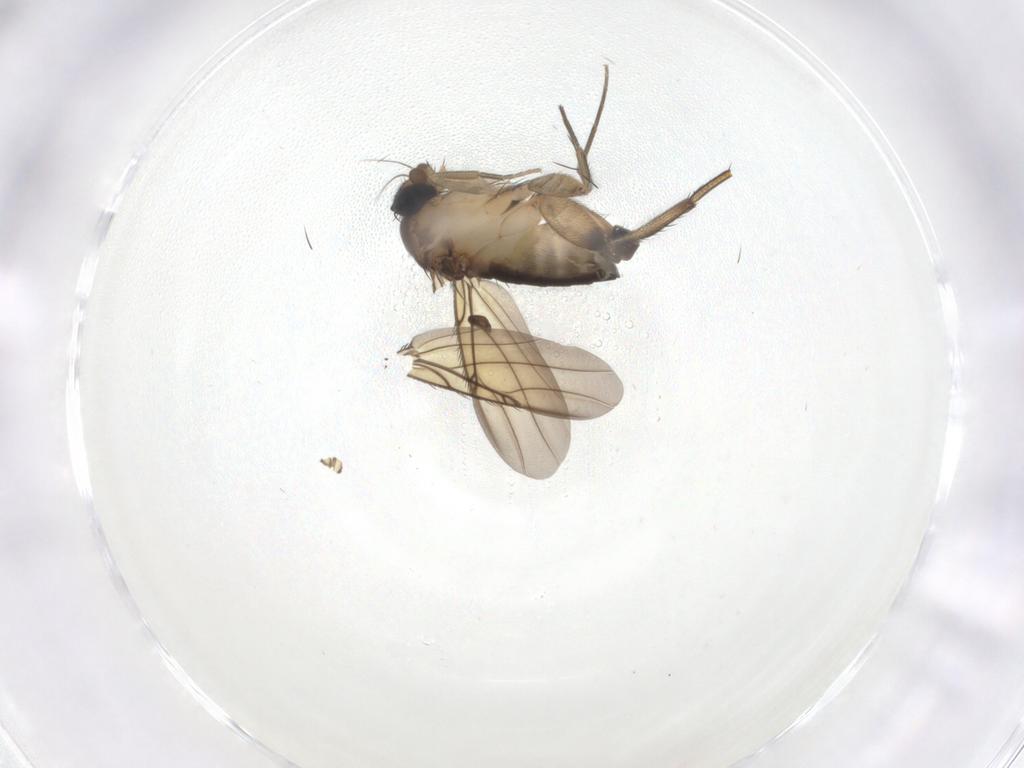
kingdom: Animalia
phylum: Arthropoda
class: Insecta
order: Diptera
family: Phoridae
